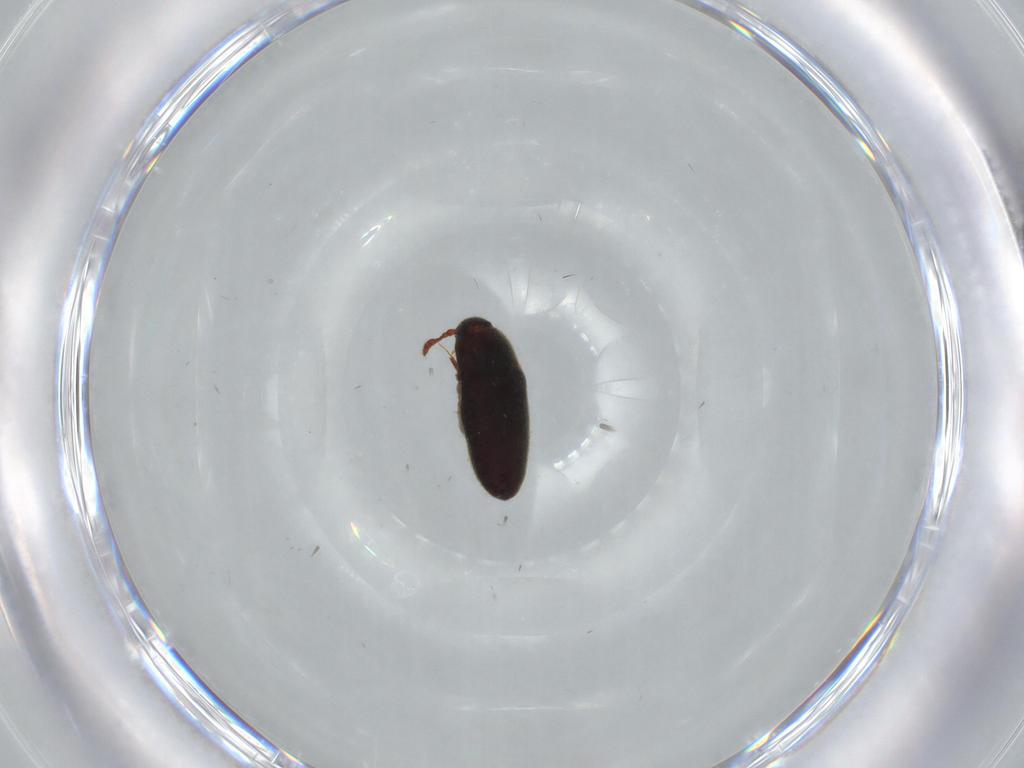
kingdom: Animalia
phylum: Arthropoda
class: Insecta
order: Coleoptera
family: Throscidae
